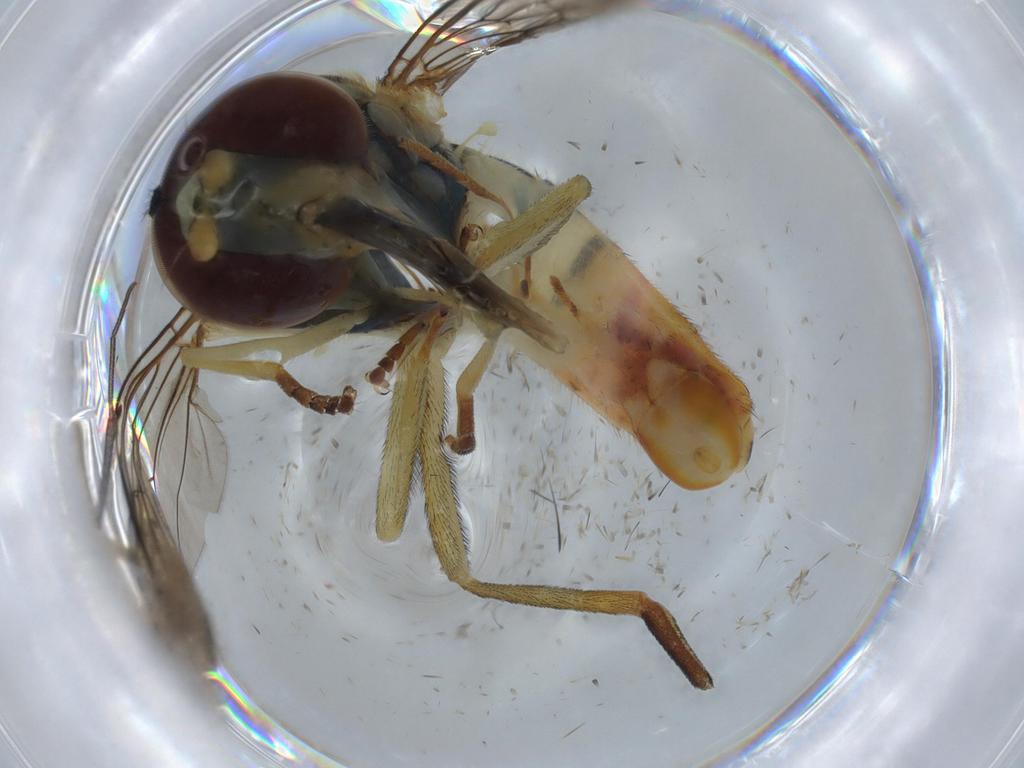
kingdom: Animalia
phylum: Arthropoda
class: Insecta
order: Diptera
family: Syrphidae
